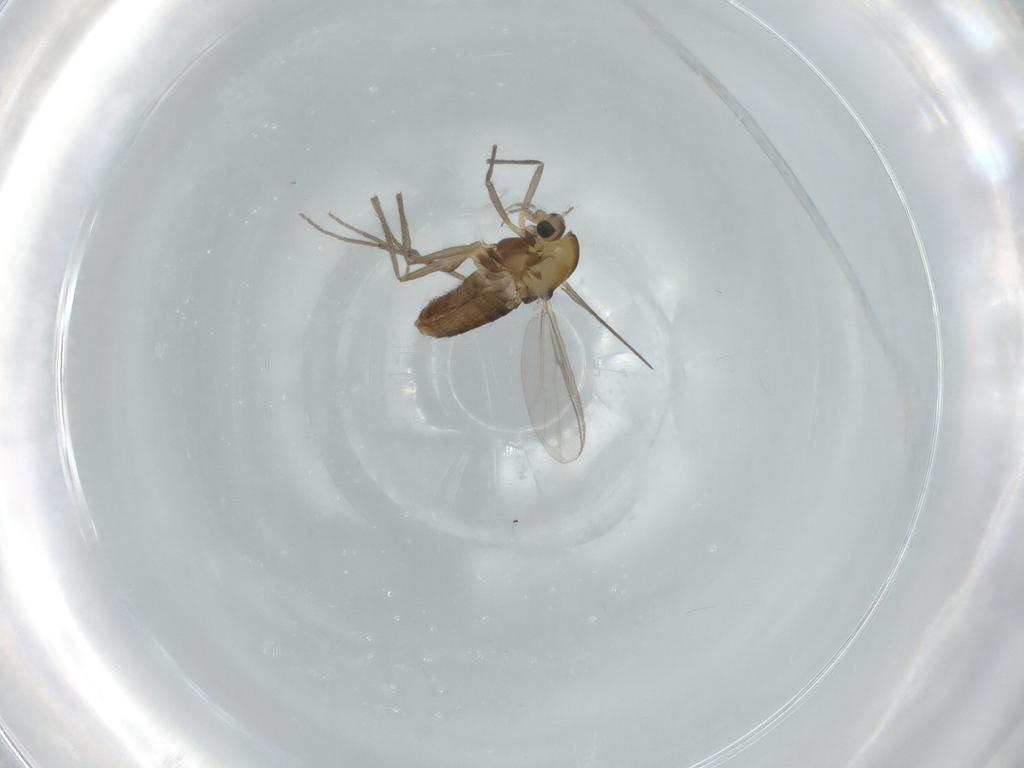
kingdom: Animalia
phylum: Arthropoda
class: Insecta
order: Diptera
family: Chironomidae
